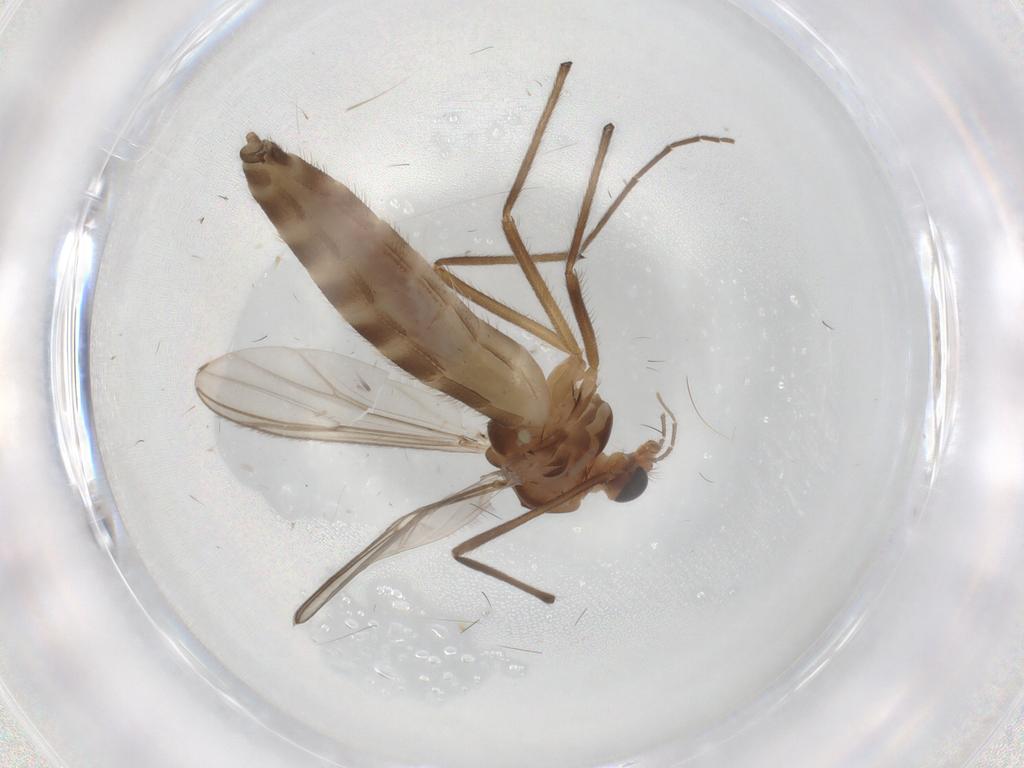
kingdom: Animalia
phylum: Arthropoda
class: Insecta
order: Diptera
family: Chironomidae
